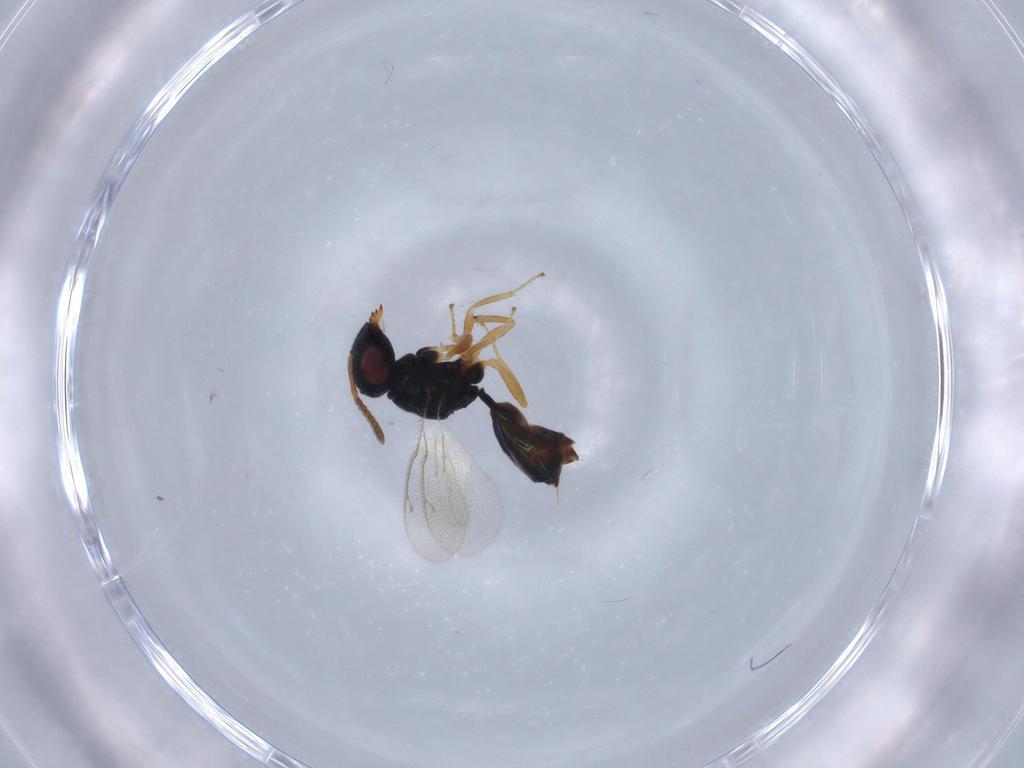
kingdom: Animalia
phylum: Arthropoda
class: Insecta
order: Hymenoptera
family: Pteromalidae
